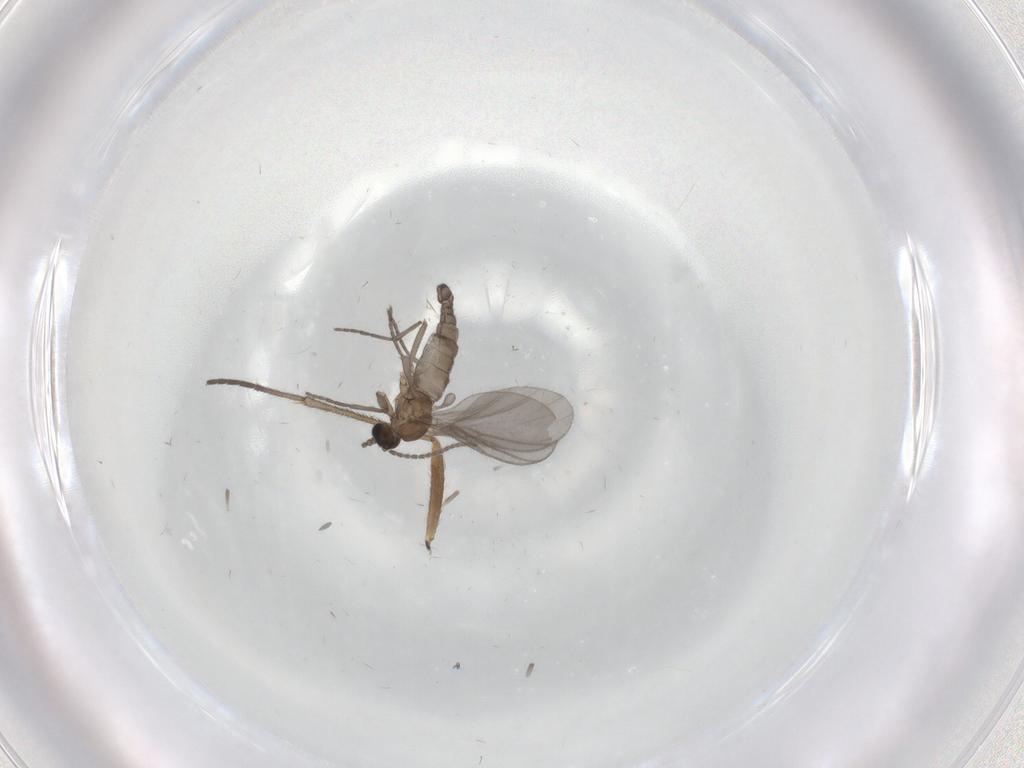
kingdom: Animalia
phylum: Arthropoda
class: Insecta
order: Diptera
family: Sciaridae
